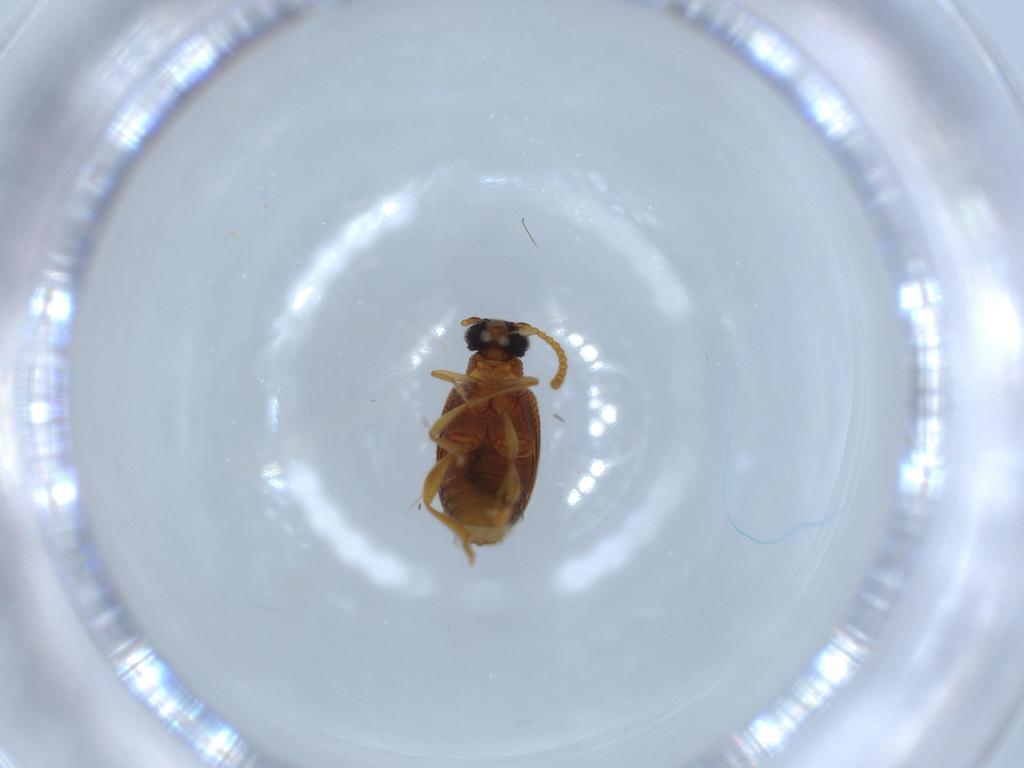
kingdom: Animalia
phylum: Arthropoda
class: Insecta
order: Coleoptera
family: Aderidae
